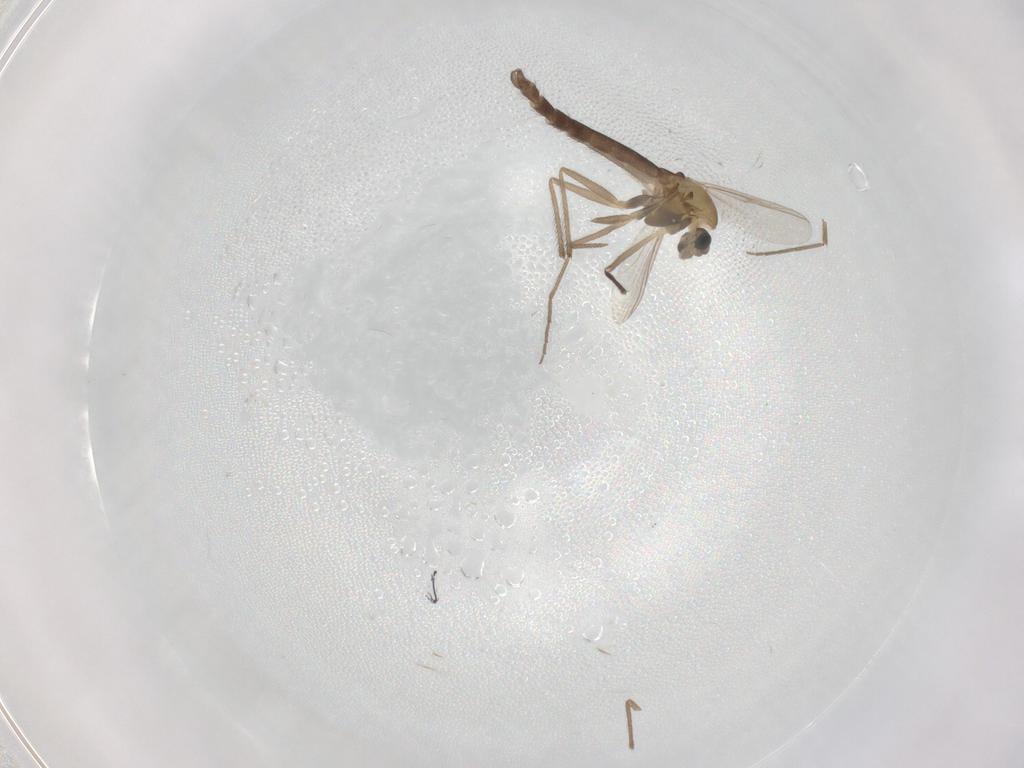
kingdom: Animalia
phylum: Arthropoda
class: Insecta
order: Diptera
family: Chironomidae
